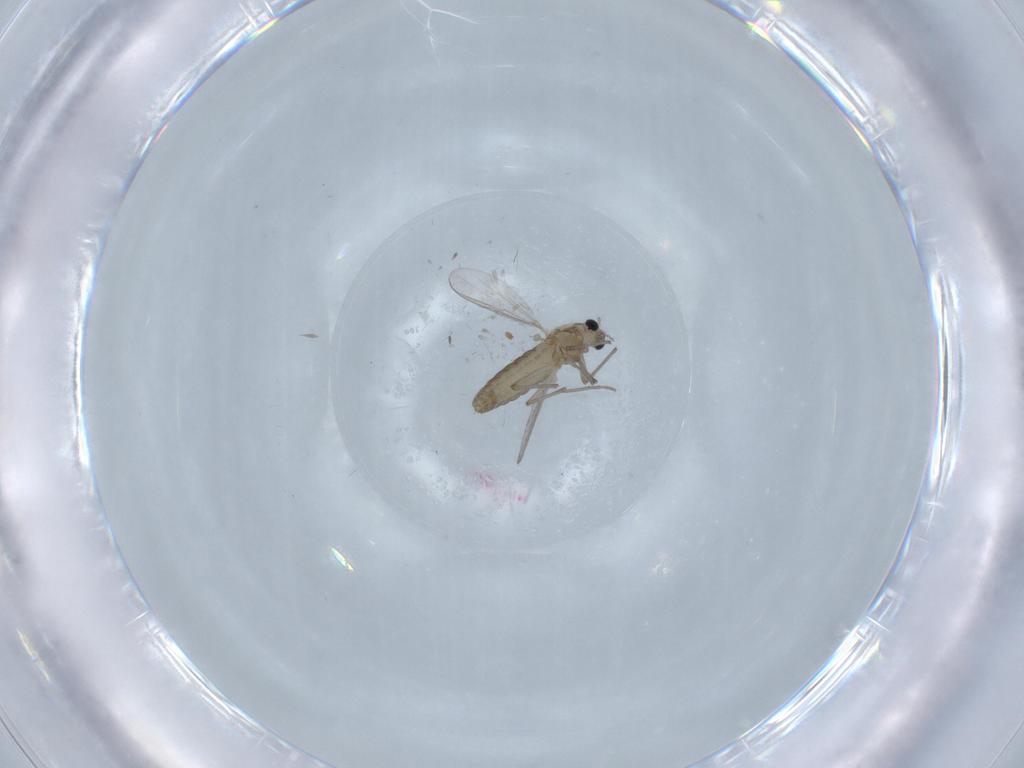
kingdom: Animalia
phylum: Arthropoda
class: Insecta
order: Diptera
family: Chironomidae
